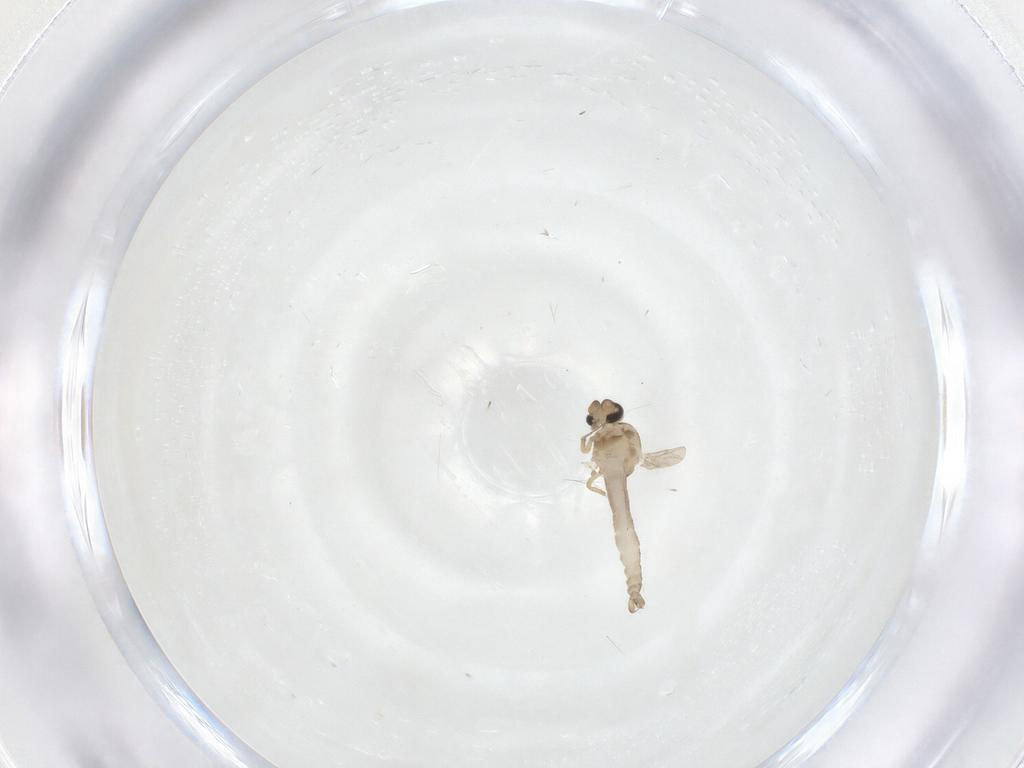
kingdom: Animalia
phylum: Arthropoda
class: Insecta
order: Diptera
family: Ceratopogonidae
